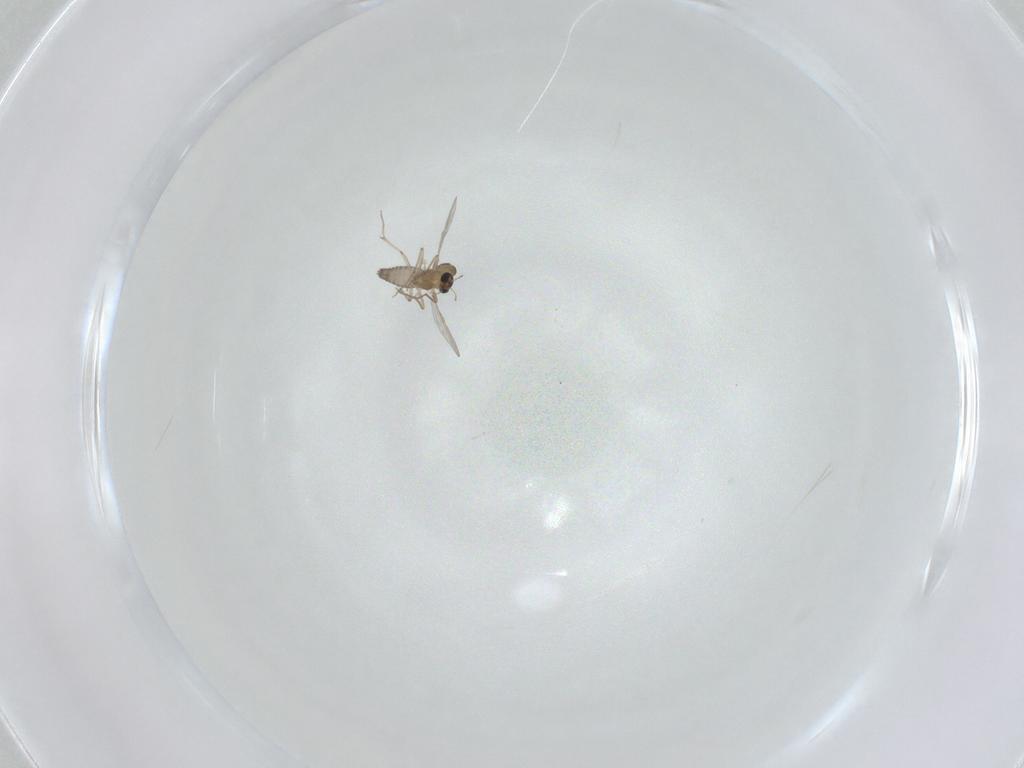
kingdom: Animalia
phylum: Arthropoda
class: Insecta
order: Diptera
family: Chironomidae
